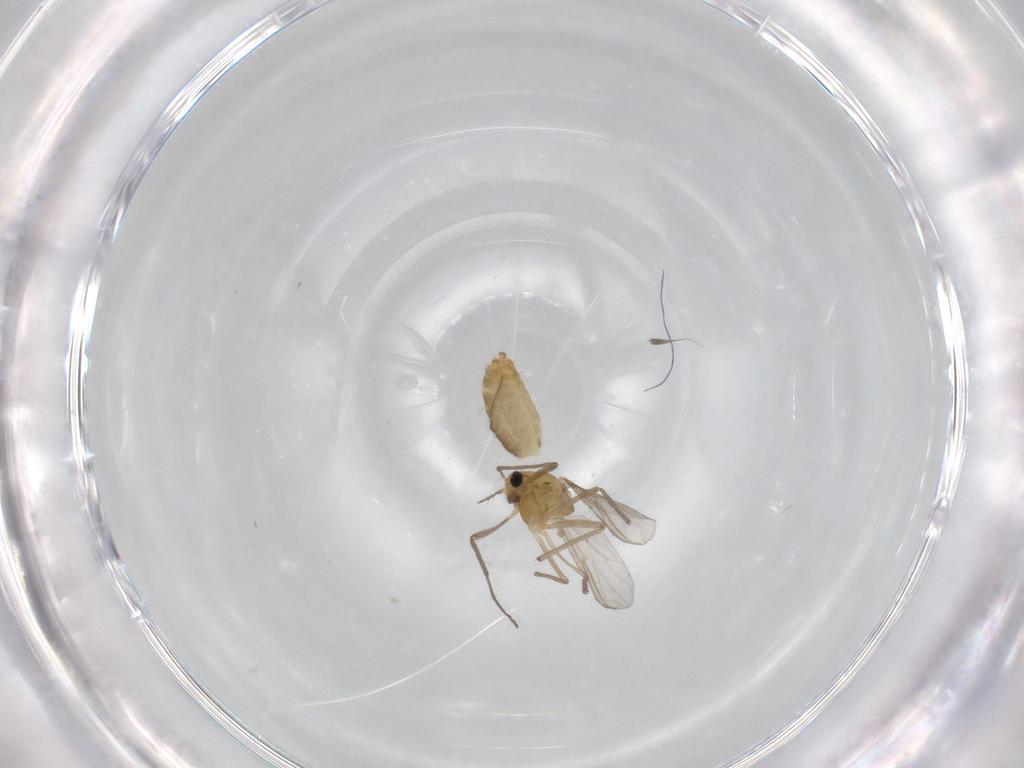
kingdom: Animalia
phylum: Arthropoda
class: Insecta
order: Diptera
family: Chironomidae
